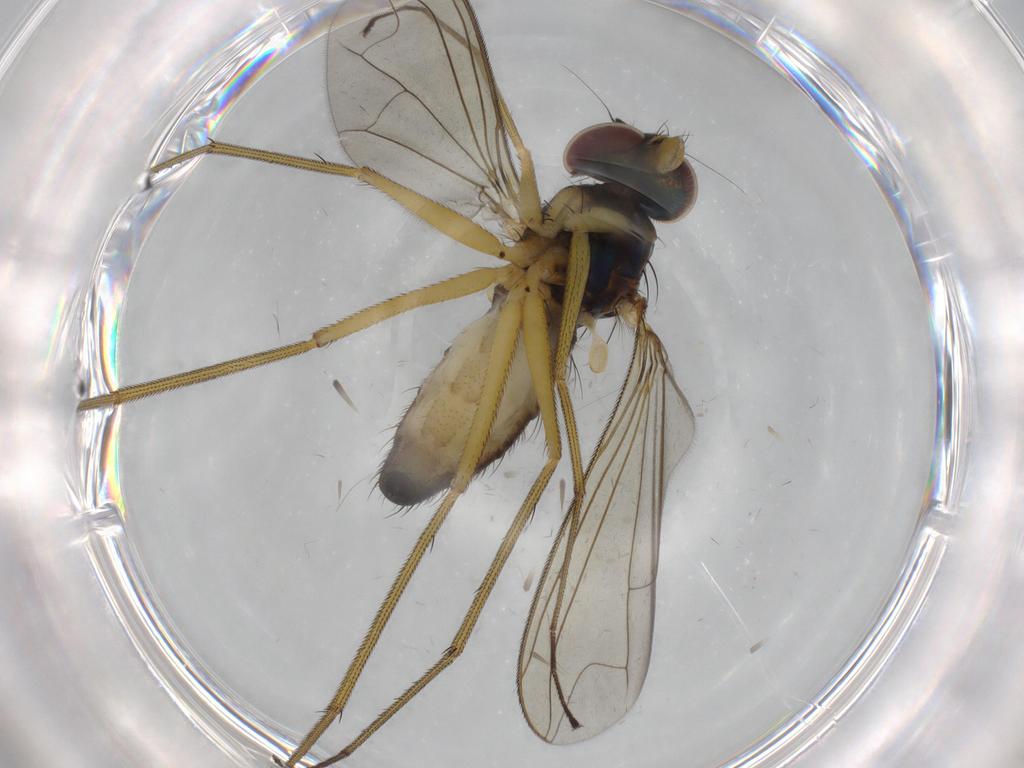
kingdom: Animalia
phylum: Arthropoda
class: Insecta
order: Diptera
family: Dolichopodidae
